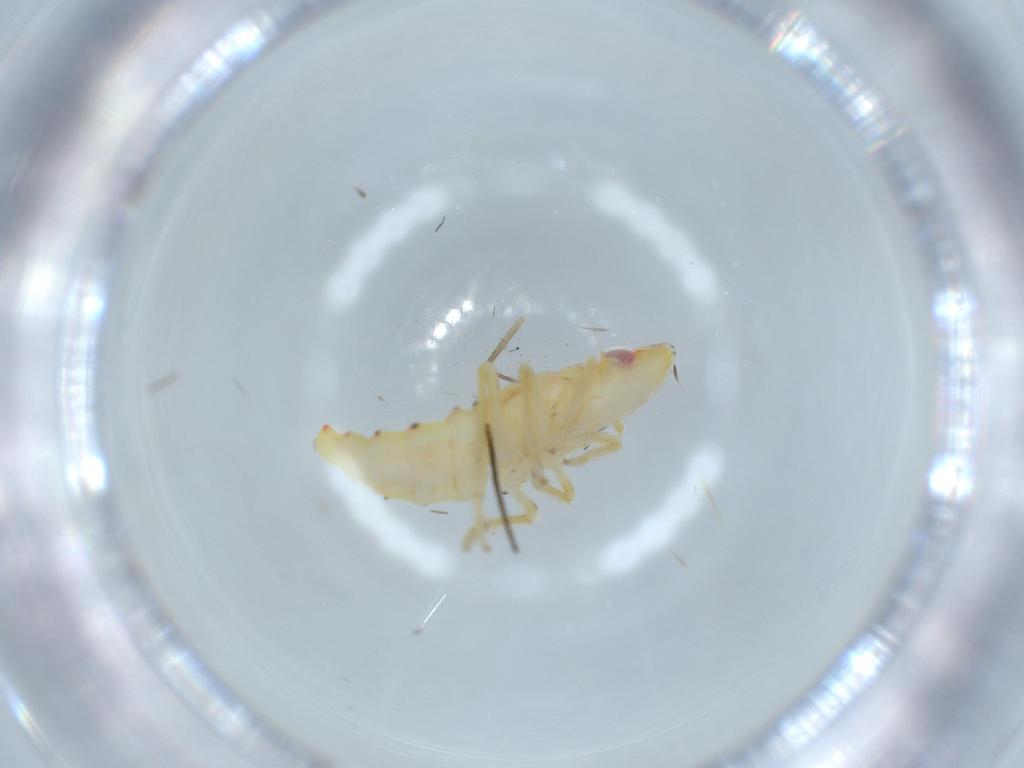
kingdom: Animalia
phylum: Arthropoda
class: Insecta
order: Hemiptera
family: Tropiduchidae
